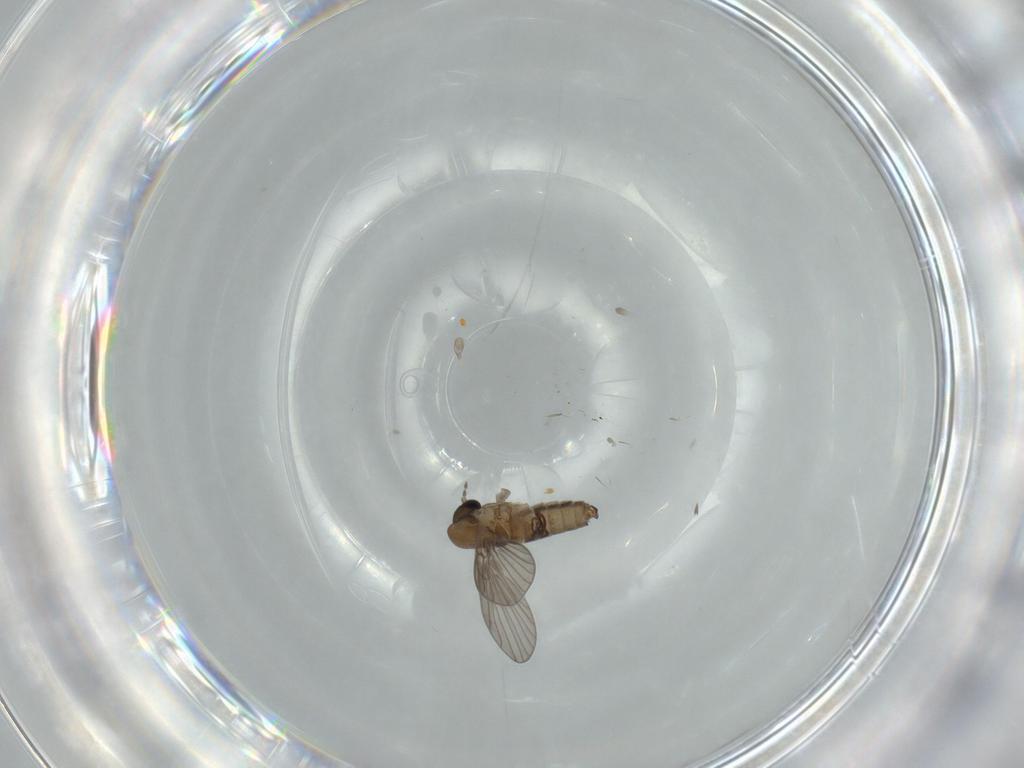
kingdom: Animalia
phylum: Arthropoda
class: Insecta
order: Diptera
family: Psychodidae
